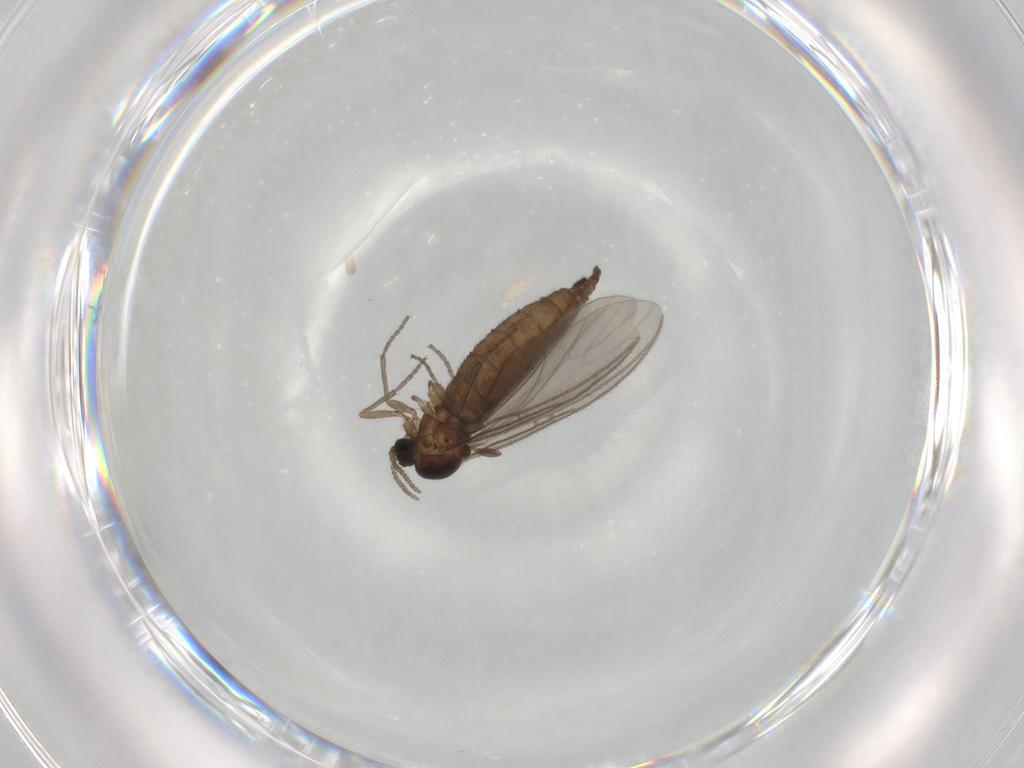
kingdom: Animalia
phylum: Arthropoda
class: Insecta
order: Diptera
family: Sciaridae
